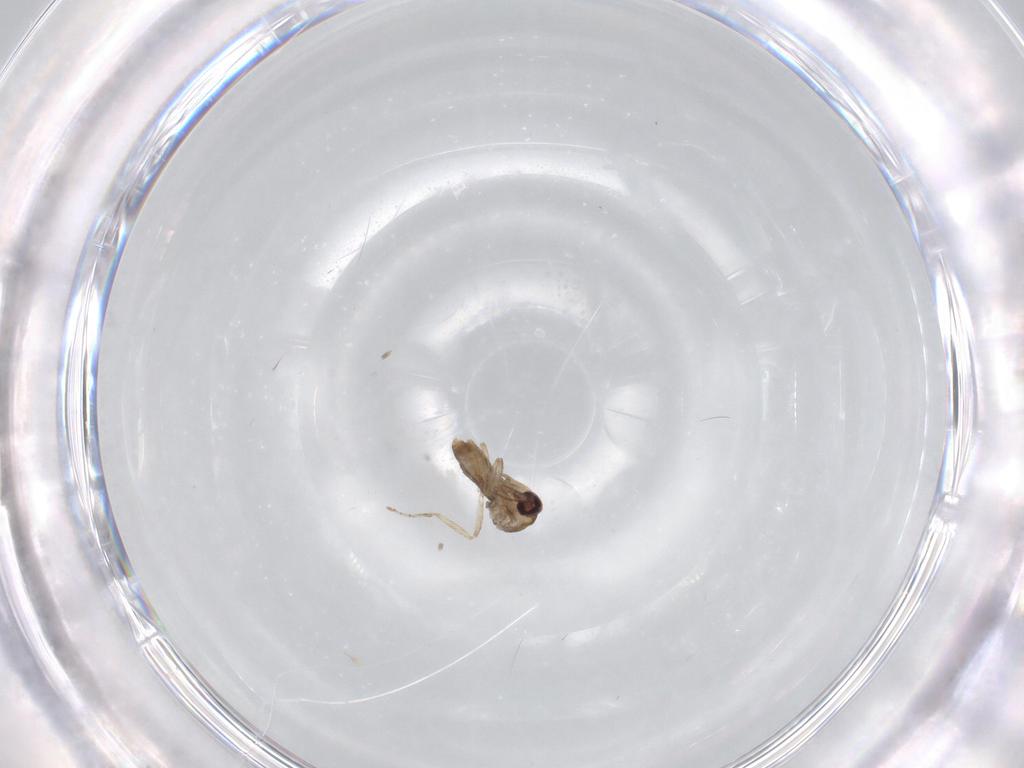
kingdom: Animalia
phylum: Arthropoda
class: Insecta
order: Diptera
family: Ceratopogonidae
